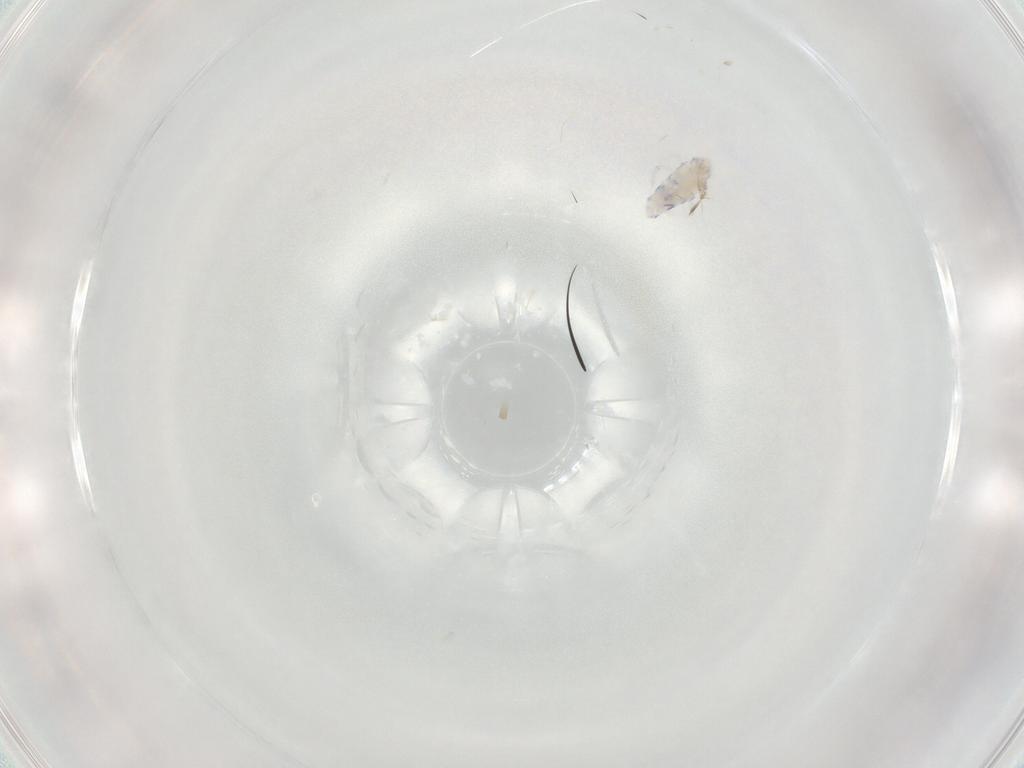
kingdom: Animalia
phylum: Arthropoda
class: Collembola
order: Entomobryomorpha
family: Entomobryidae
